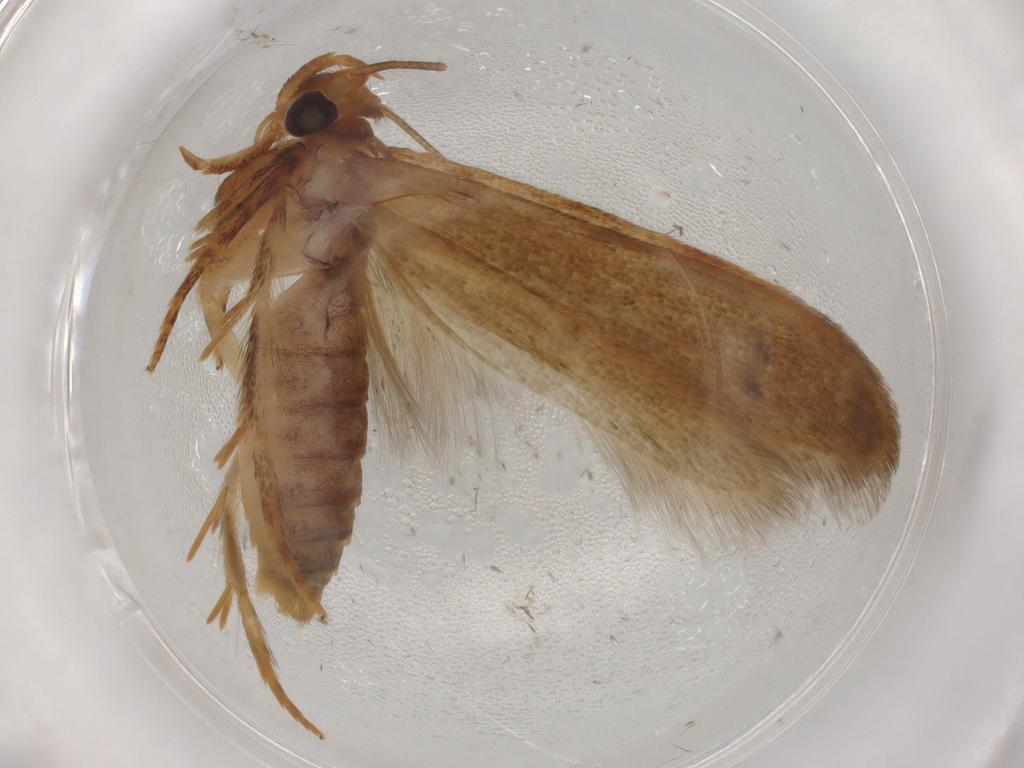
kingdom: Animalia
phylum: Arthropoda
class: Insecta
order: Lepidoptera
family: Blastobasidae
